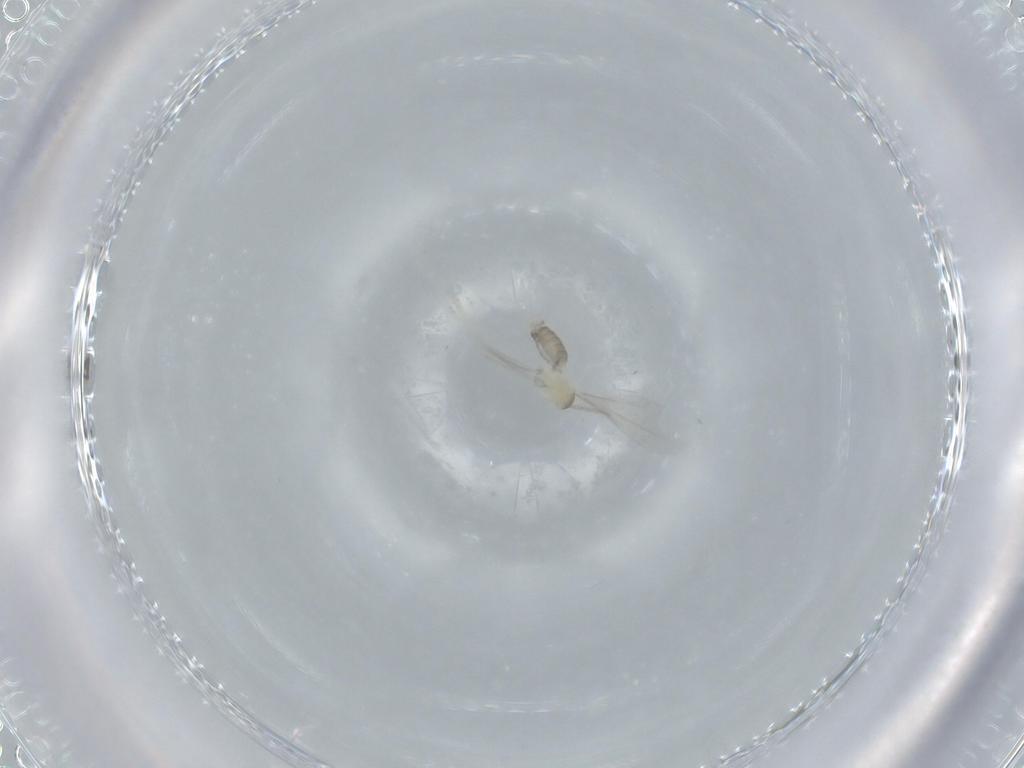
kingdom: Animalia
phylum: Arthropoda
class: Insecta
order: Diptera
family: Cecidomyiidae
